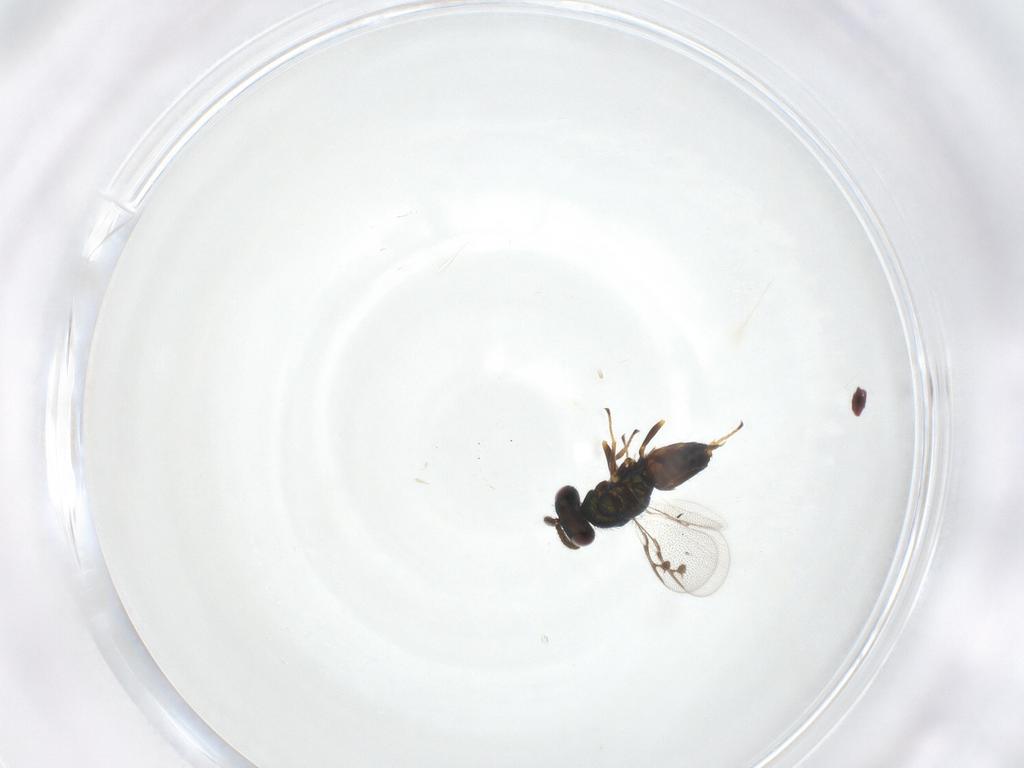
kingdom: Animalia
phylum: Arthropoda
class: Insecta
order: Hymenoptera
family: Pirenidae
